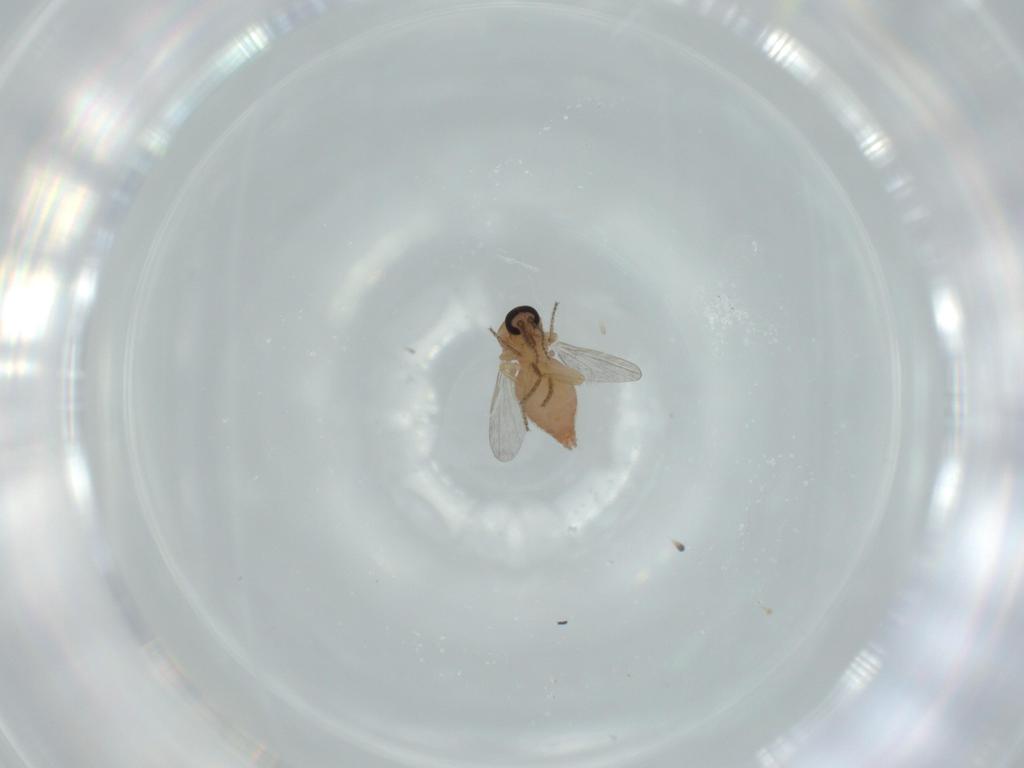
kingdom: Animalia
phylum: Arthropoda
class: Insecta
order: Diptera
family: Ceratopogonidae
